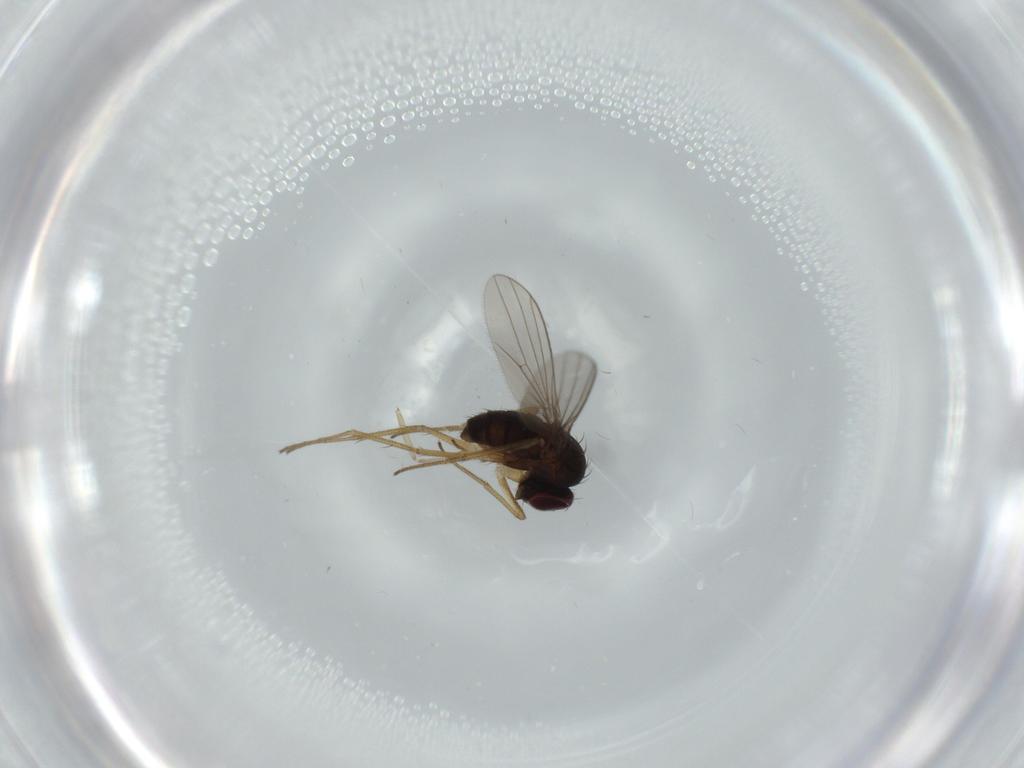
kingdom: Animalia
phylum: Arthropoda
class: Insecta
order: Diptera
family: Dolichopodidae
